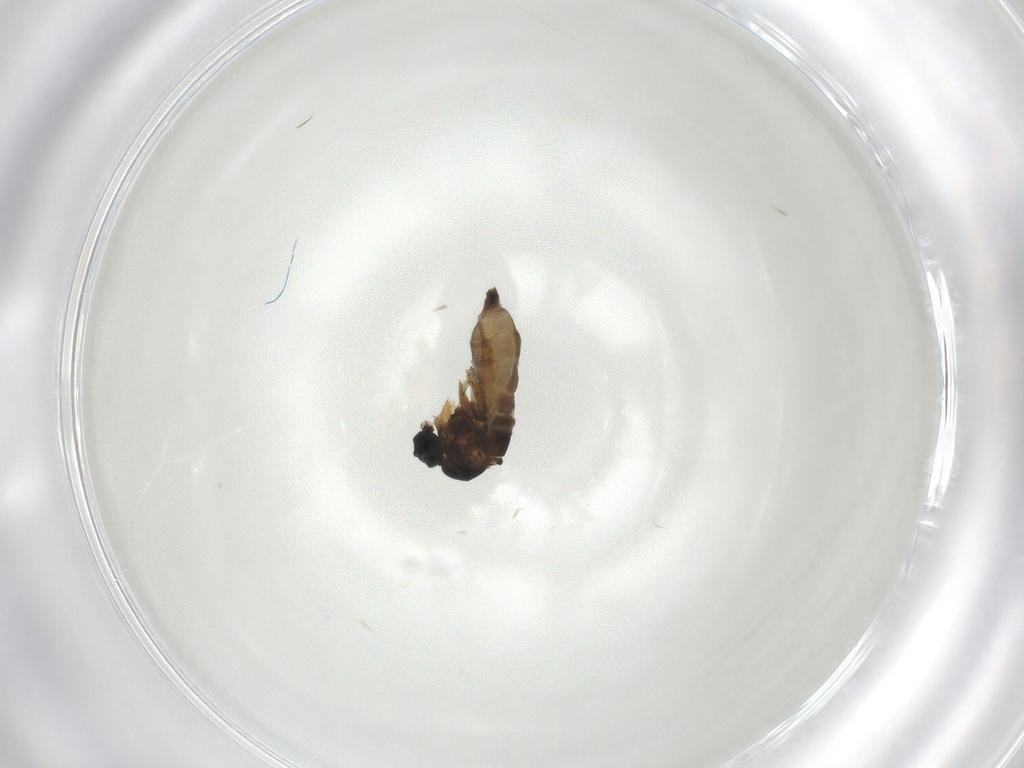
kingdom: Animalia
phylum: Arthropoda
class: Insecta
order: Diptera
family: Sciaridae
